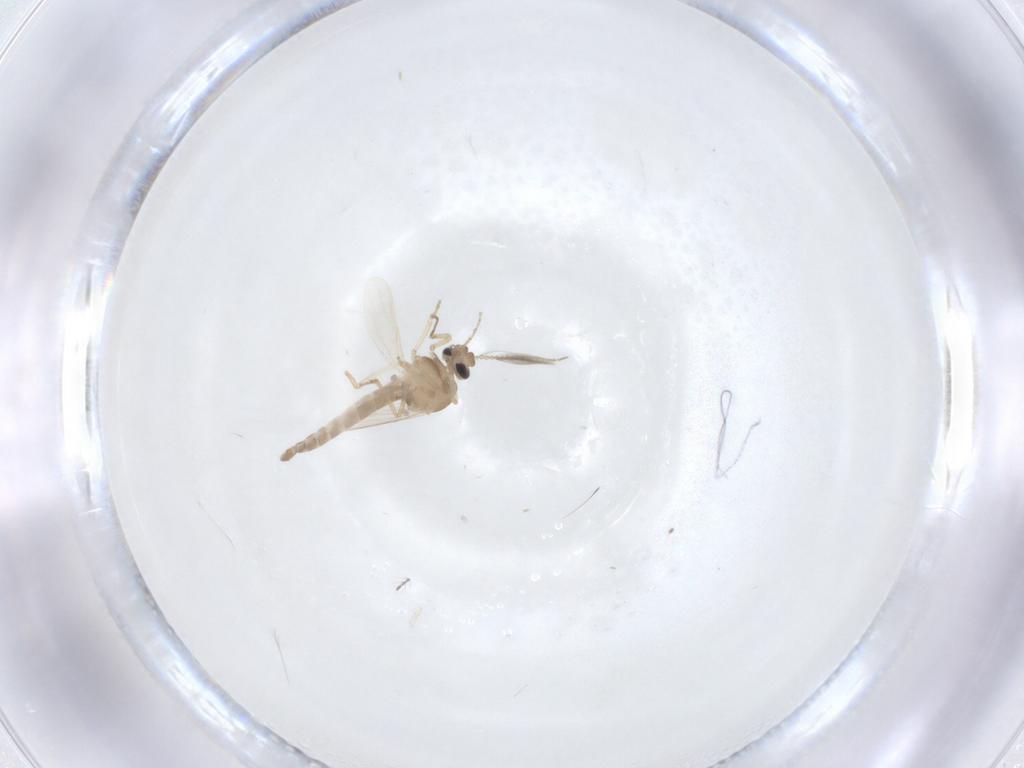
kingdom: Animalia
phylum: Arthropoda
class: Insecta
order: Diptera
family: Ceratopogonidae
